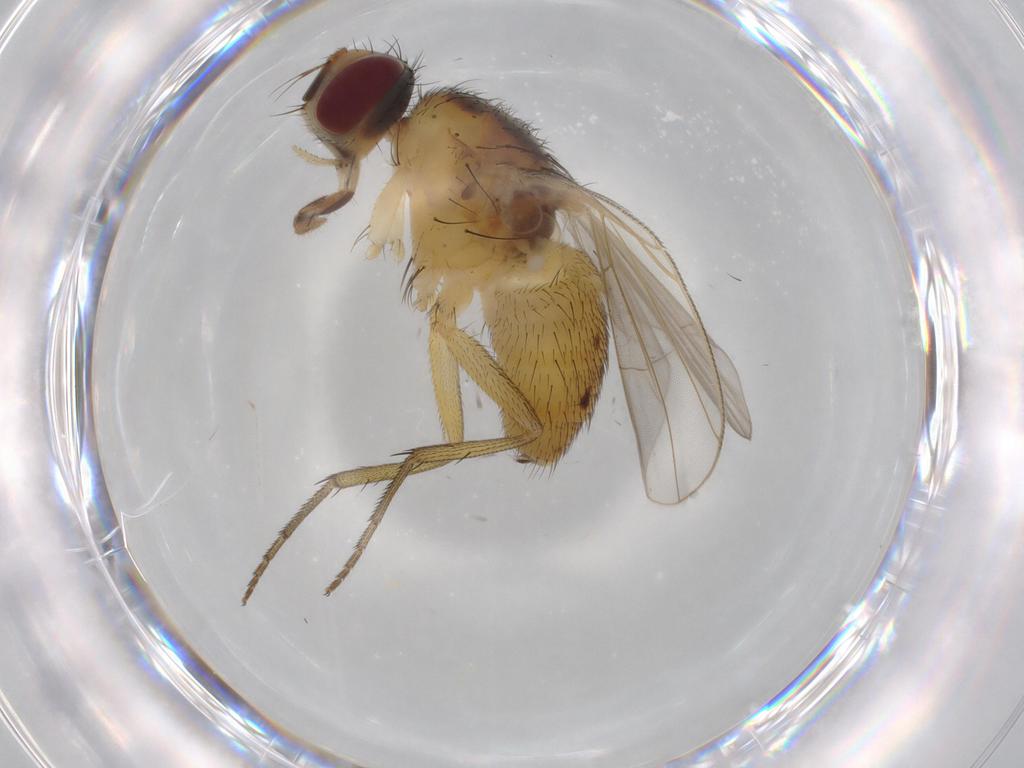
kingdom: Animalia
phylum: Arthropoda
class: Insecta
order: Diptera
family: Muscidae
